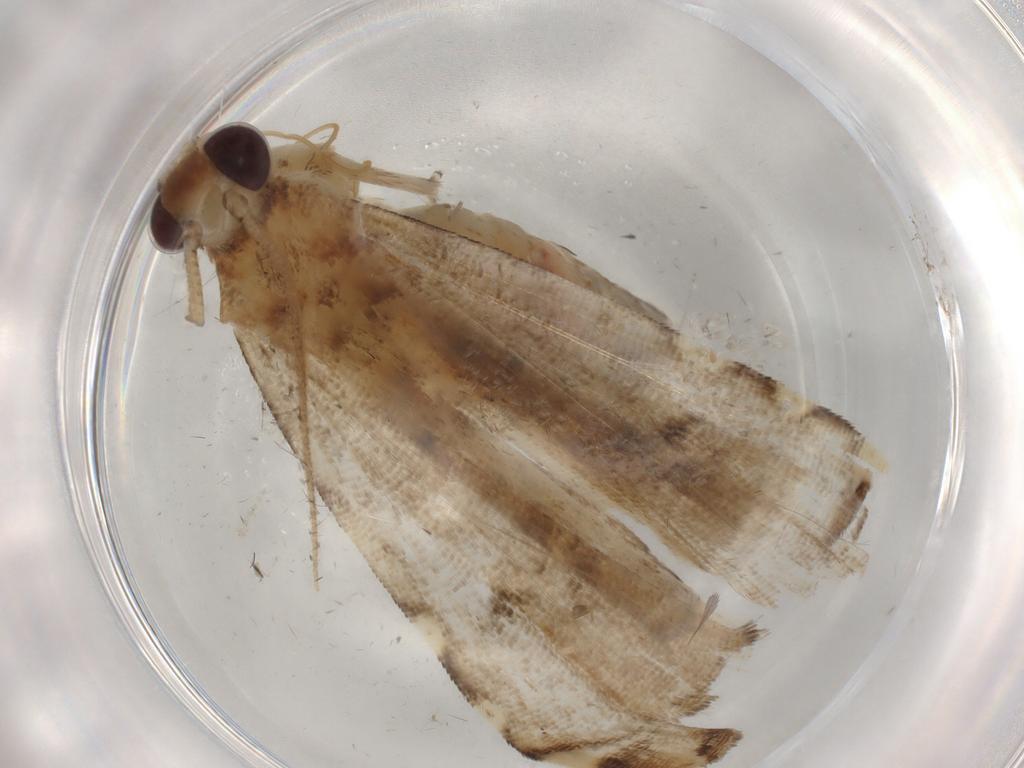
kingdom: Animalia
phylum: Arthropoda
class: Insecta
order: Lepidoptera
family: Crambidae
